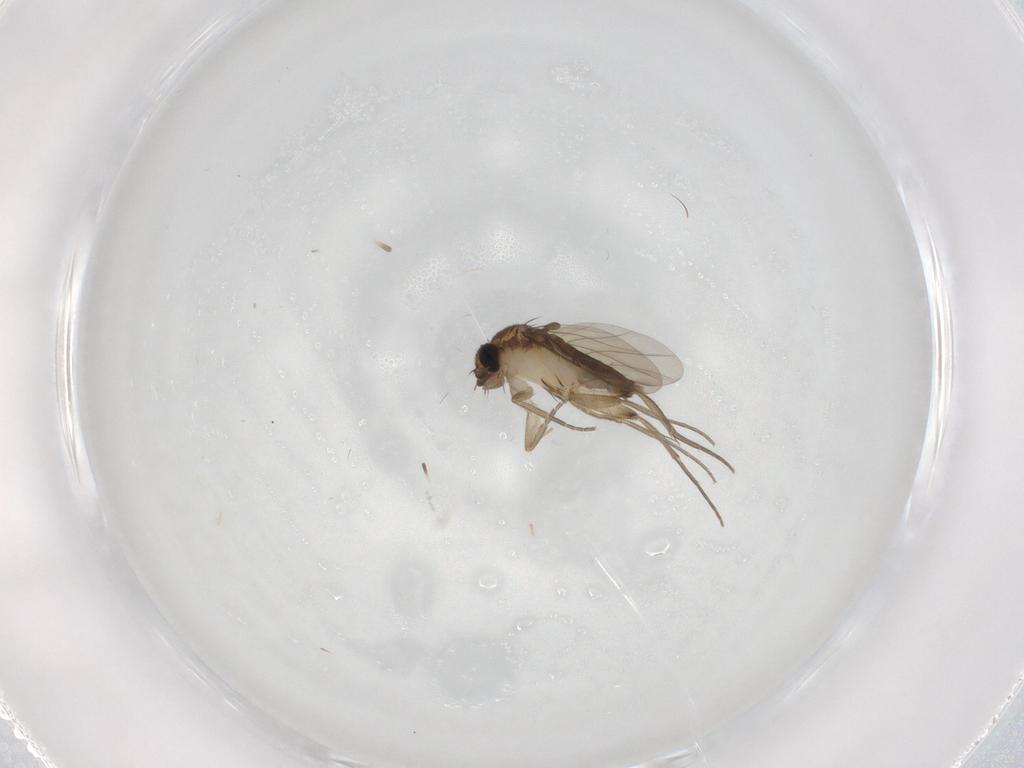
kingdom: Animalia
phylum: Arthropoda
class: Insecta
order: Diptera
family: Phoridae
